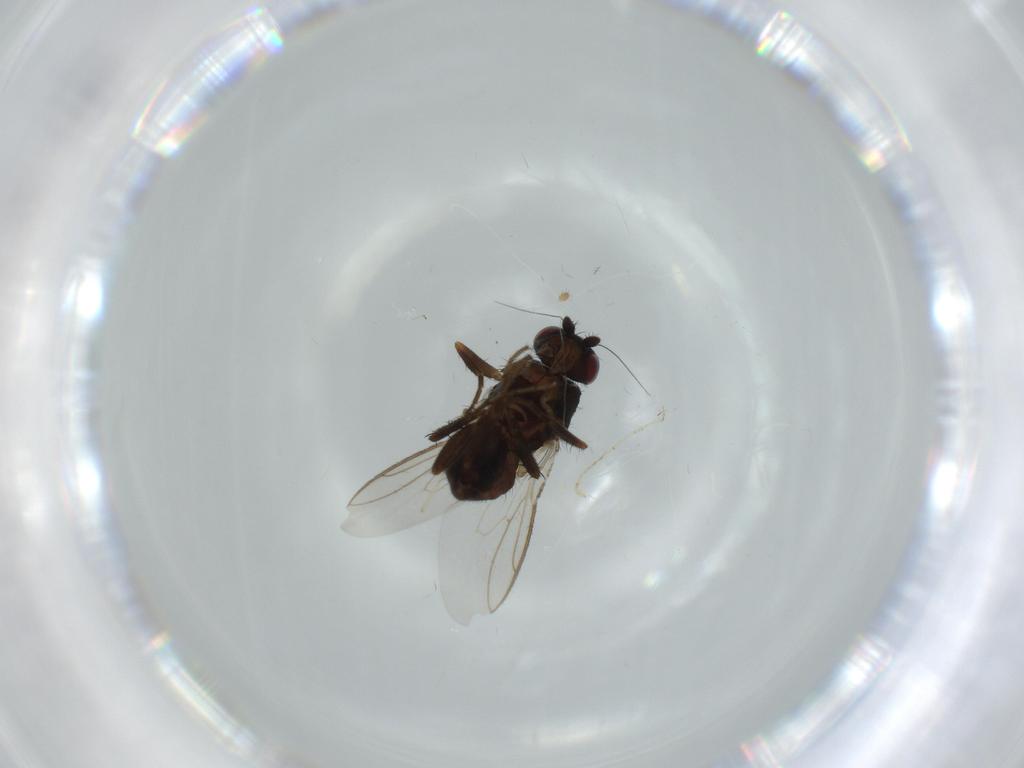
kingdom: Animalia
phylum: Arthropoda
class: Insecta
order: Diptera
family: Sphaeroceridae
